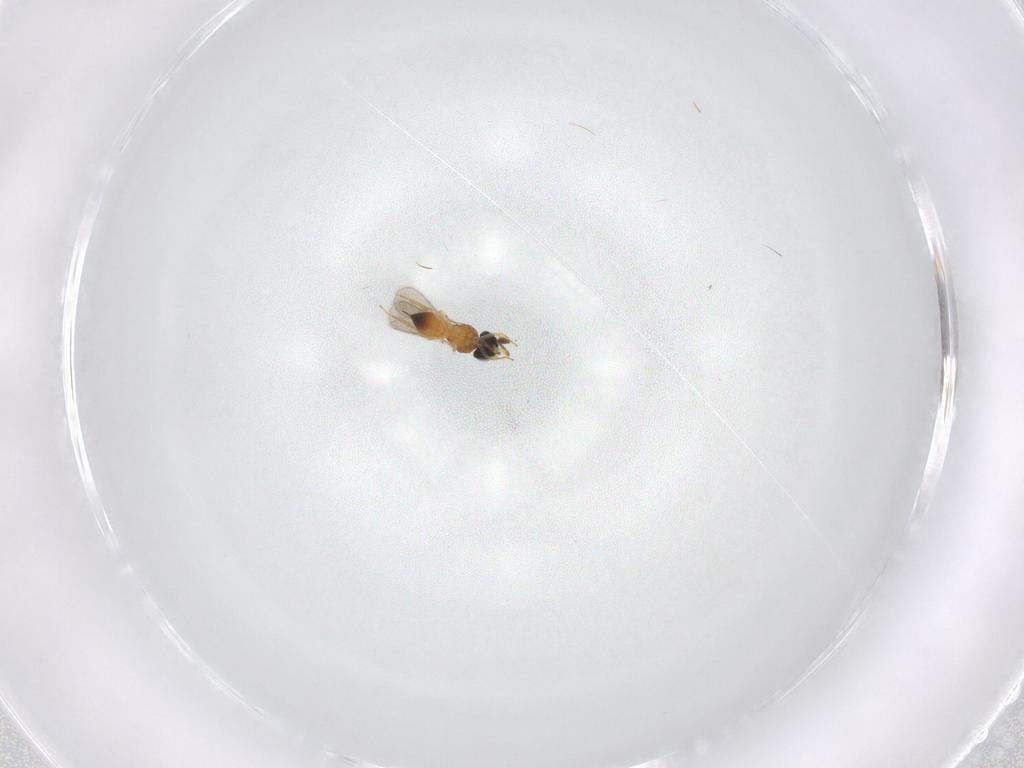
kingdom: Animalia
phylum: Arthropoda
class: Insecta
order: Hymenoptera
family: Scelionidae
